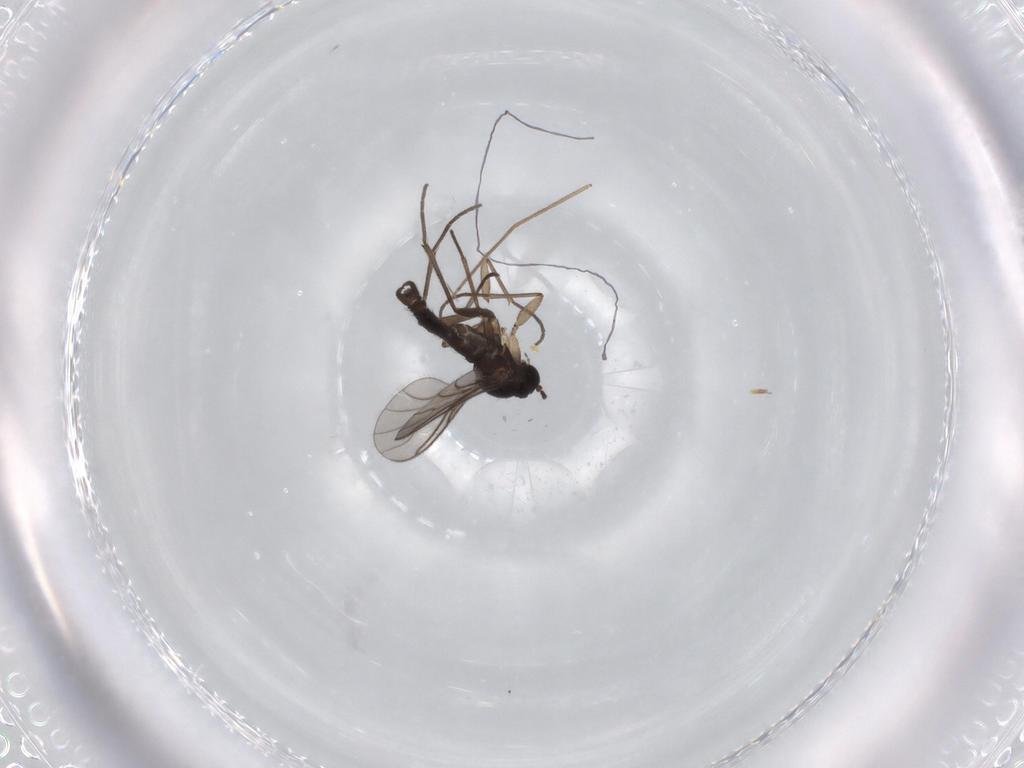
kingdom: Animalia
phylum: Arthropoda
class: Insecta
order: Diptera
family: Sciaridae
